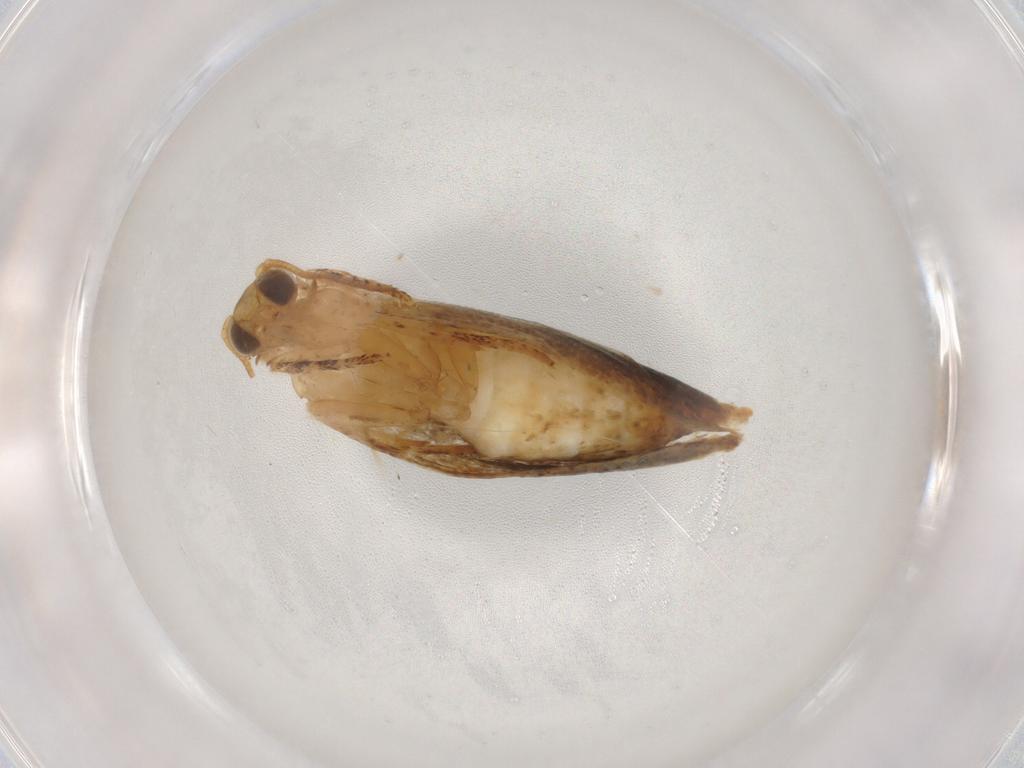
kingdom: Animalia
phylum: Arthropoda
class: Insecta
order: Lepidoptera
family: Tortricidae
